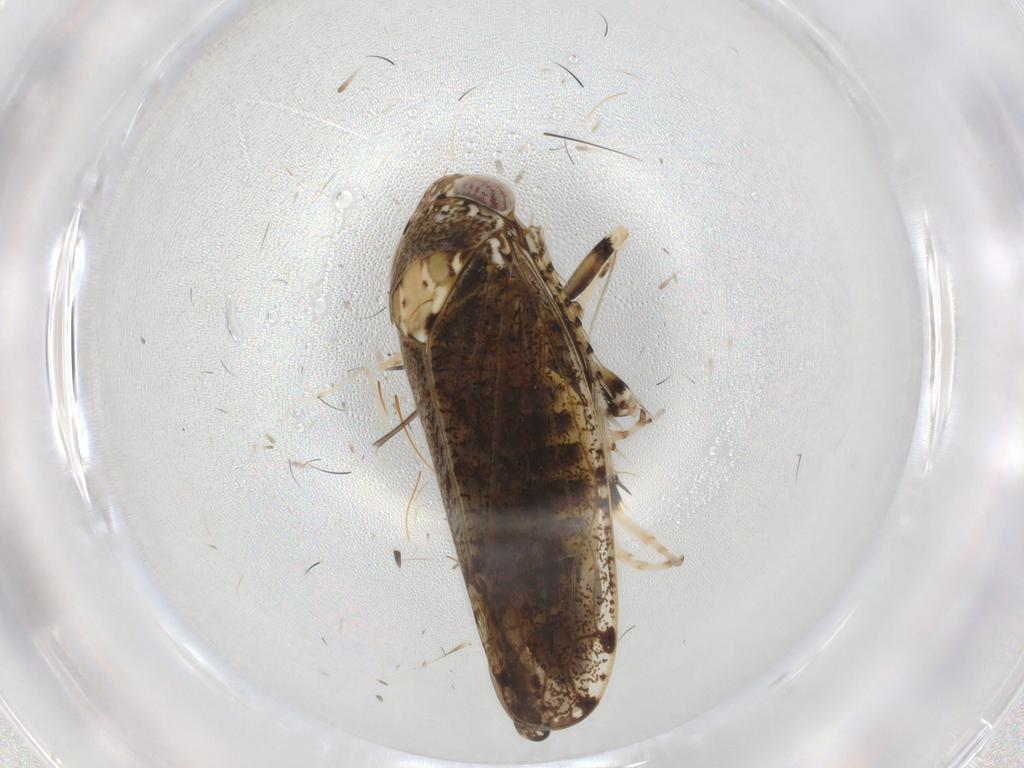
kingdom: Animalia
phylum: Arthropoda
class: Insecta
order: Hemiptera
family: Cicadellidae
